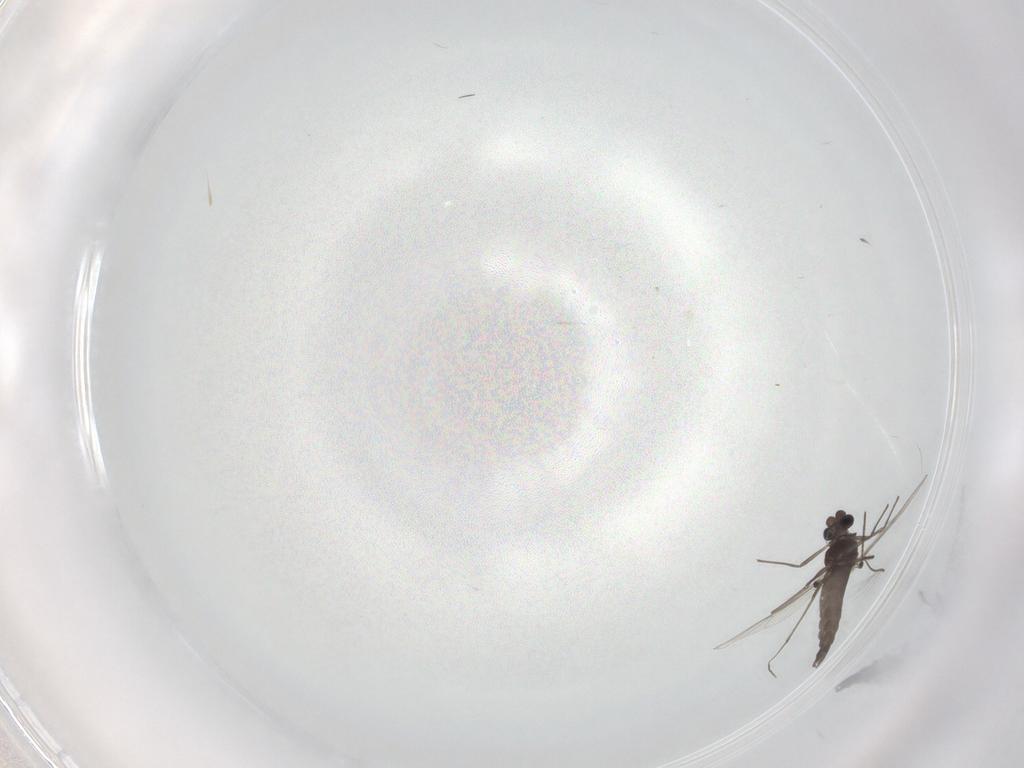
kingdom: Animalia
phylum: Arthropoda
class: Insecta
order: Diptera
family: Cecidomyiidae
